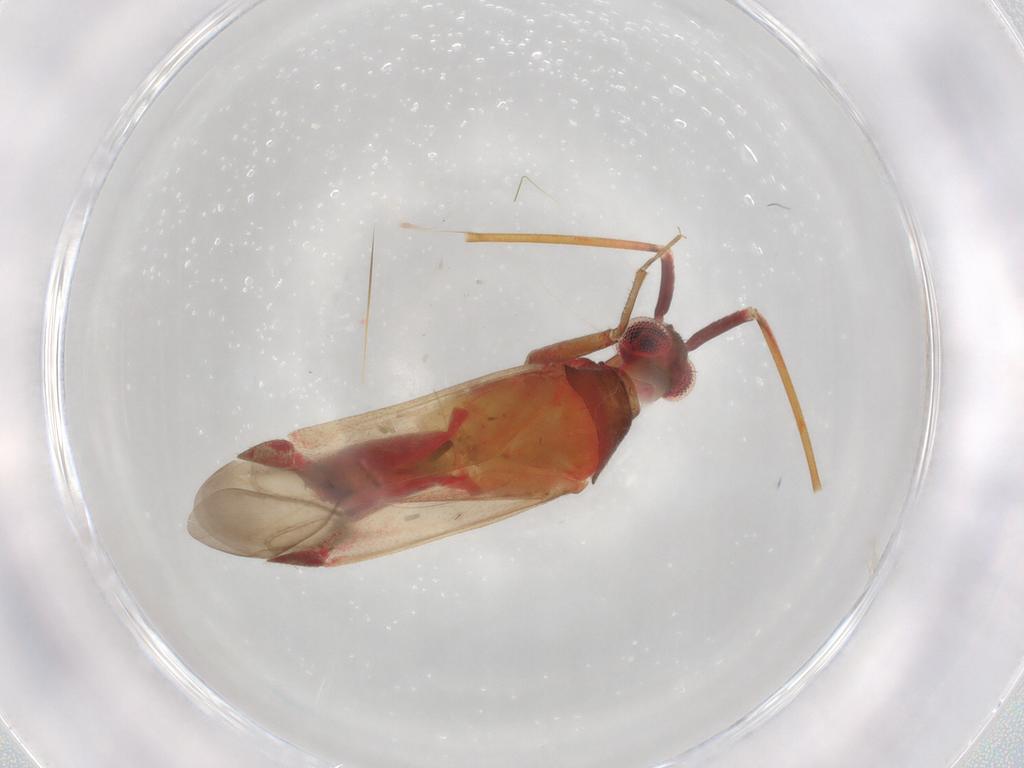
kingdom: Animalia
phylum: Arthropoda
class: Insecta
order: Hemiptera
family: Miridae
